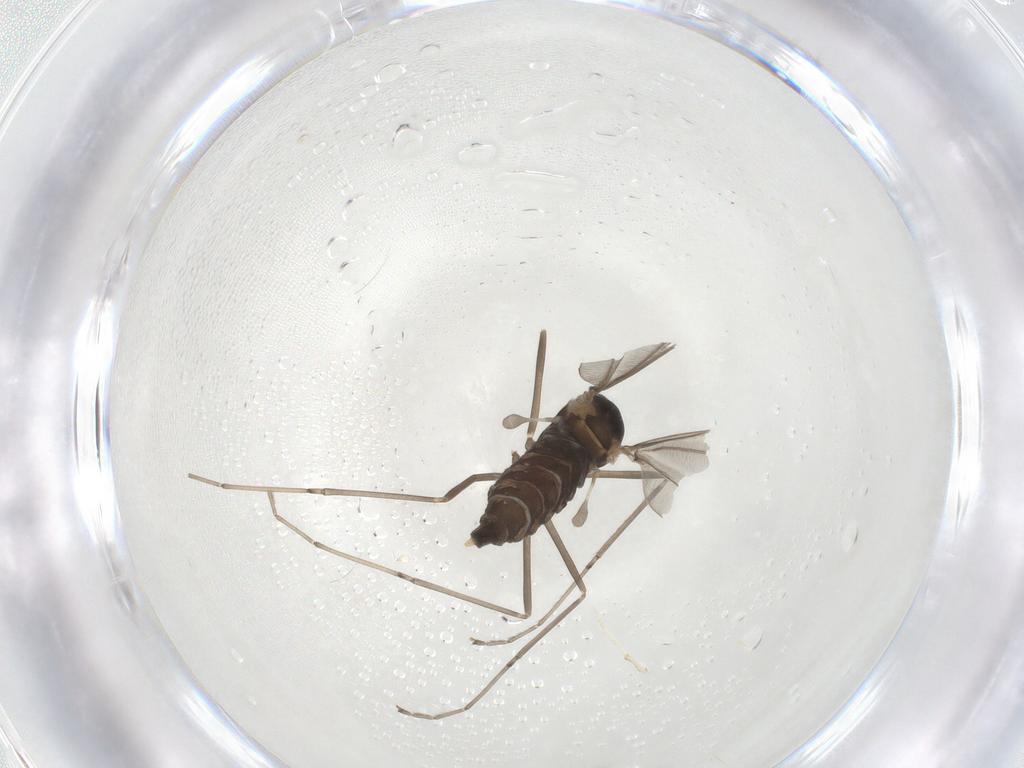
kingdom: Animalia
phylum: Arthropoda
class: Insecta
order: Diptera
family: Cecidomyiidae
